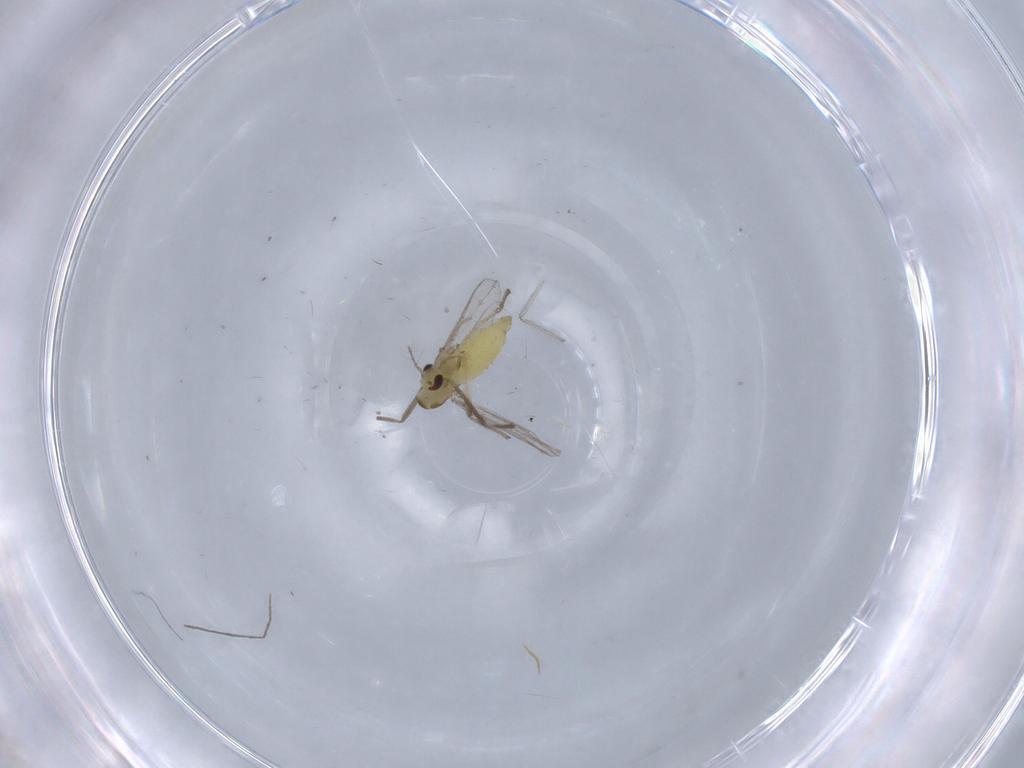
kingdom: Animalia
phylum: Arthropoda
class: Insecta
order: Diptera
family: Chironomidae
